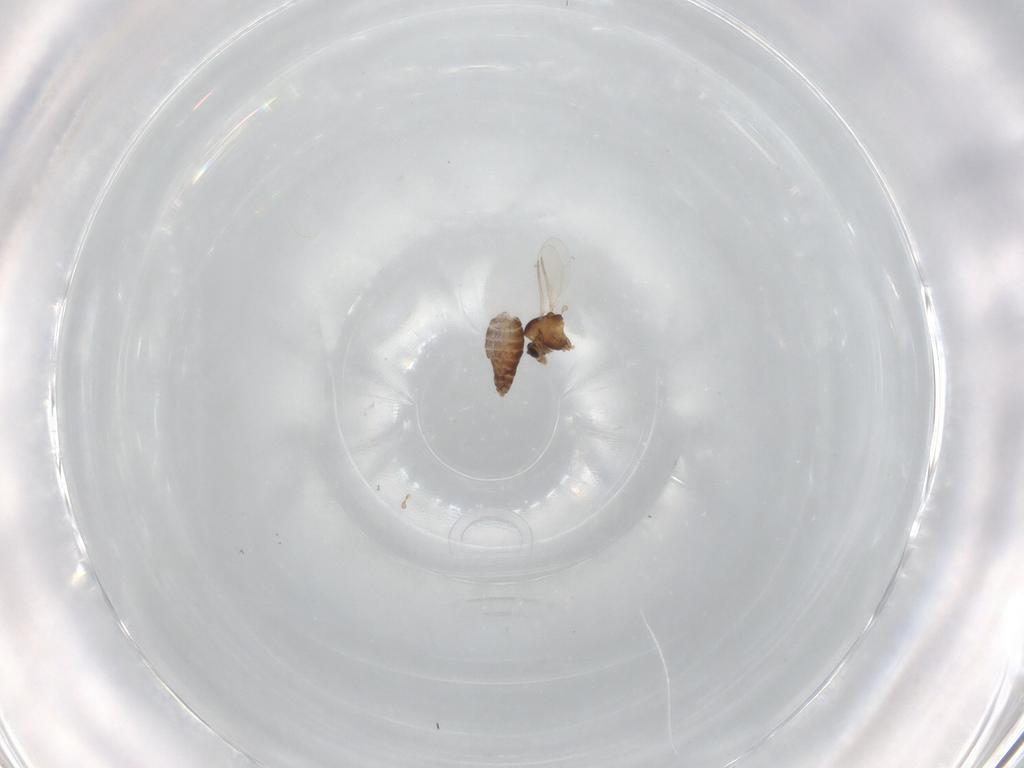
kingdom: Animalia
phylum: Arthropoda
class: Insecta
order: Diptera
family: Chironomidae
